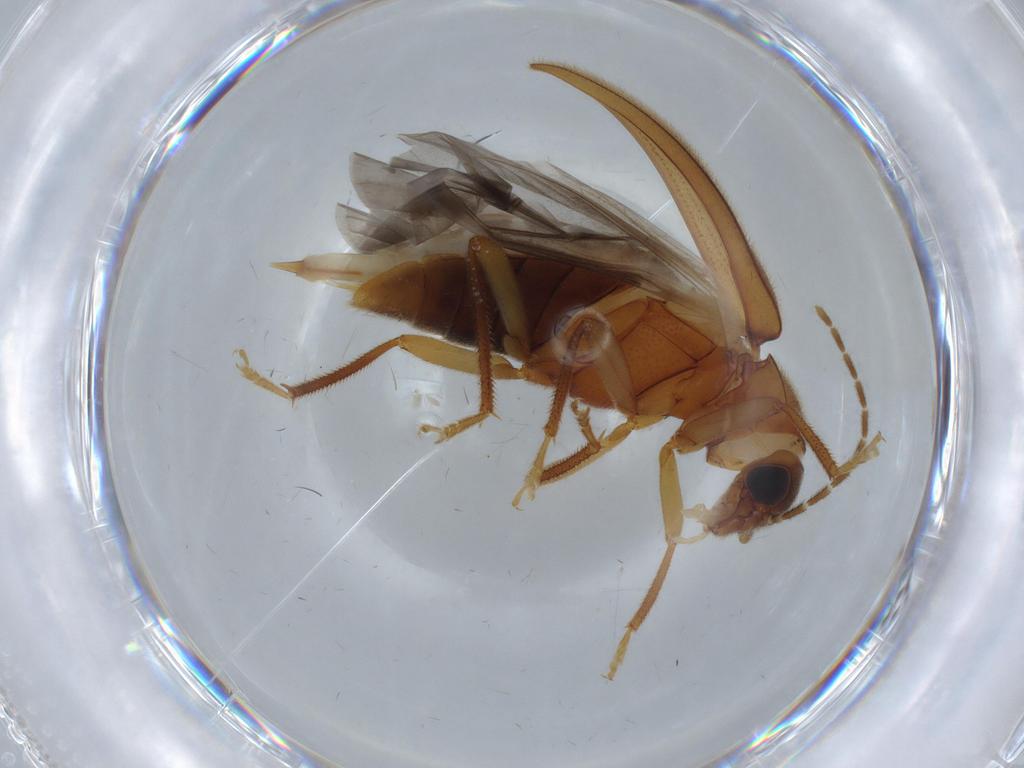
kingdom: Animalia
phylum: Arthropoda
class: Insecta
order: Coleoptera
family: Ptilodactylidae
